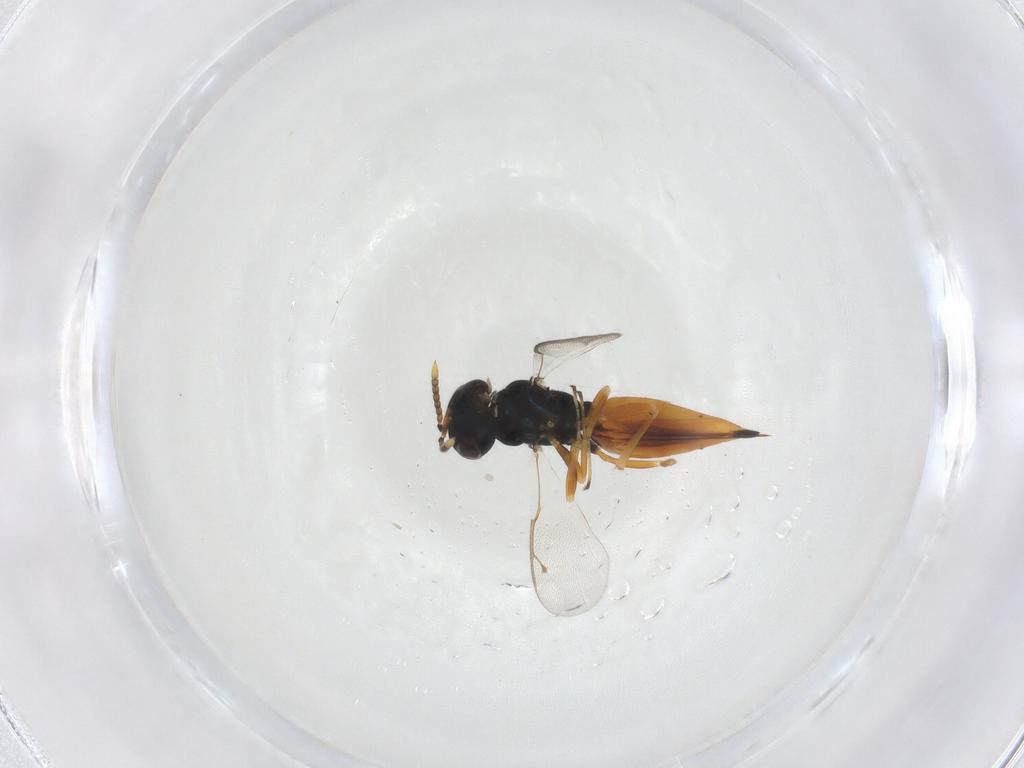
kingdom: Animalia
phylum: Arthropoda
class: Insecta
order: Hymenoptera
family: Pteromalidae
